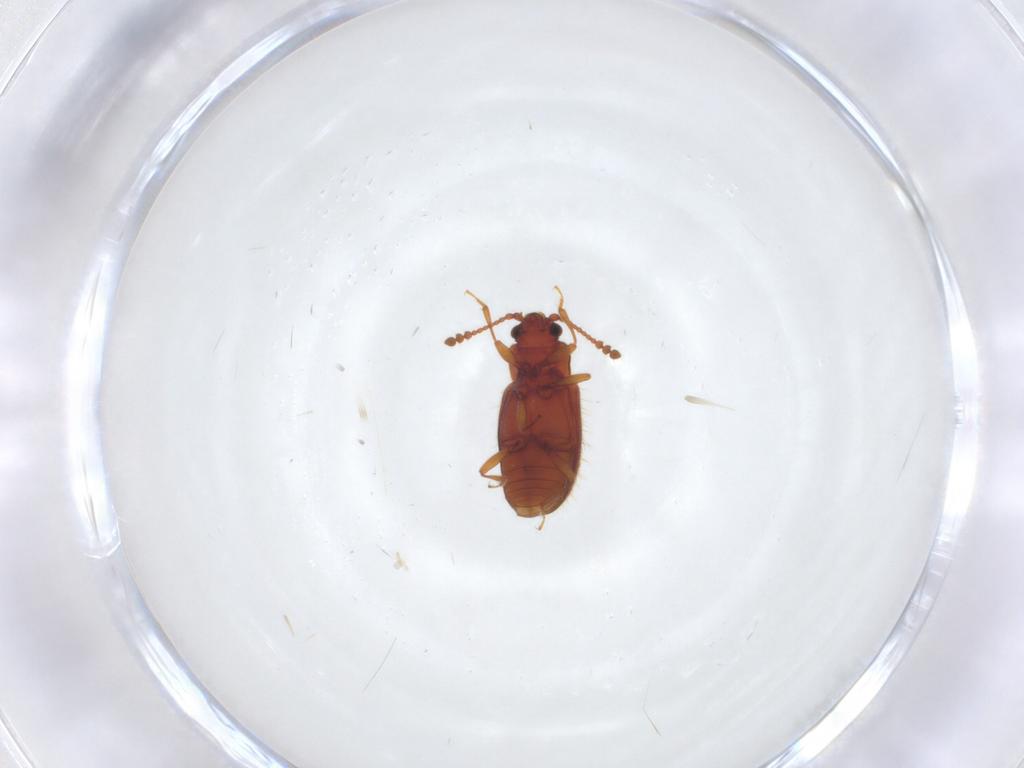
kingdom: Animalia
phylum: Arthropoda
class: Insecta
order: Coleoptera
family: Cryptophagidae
